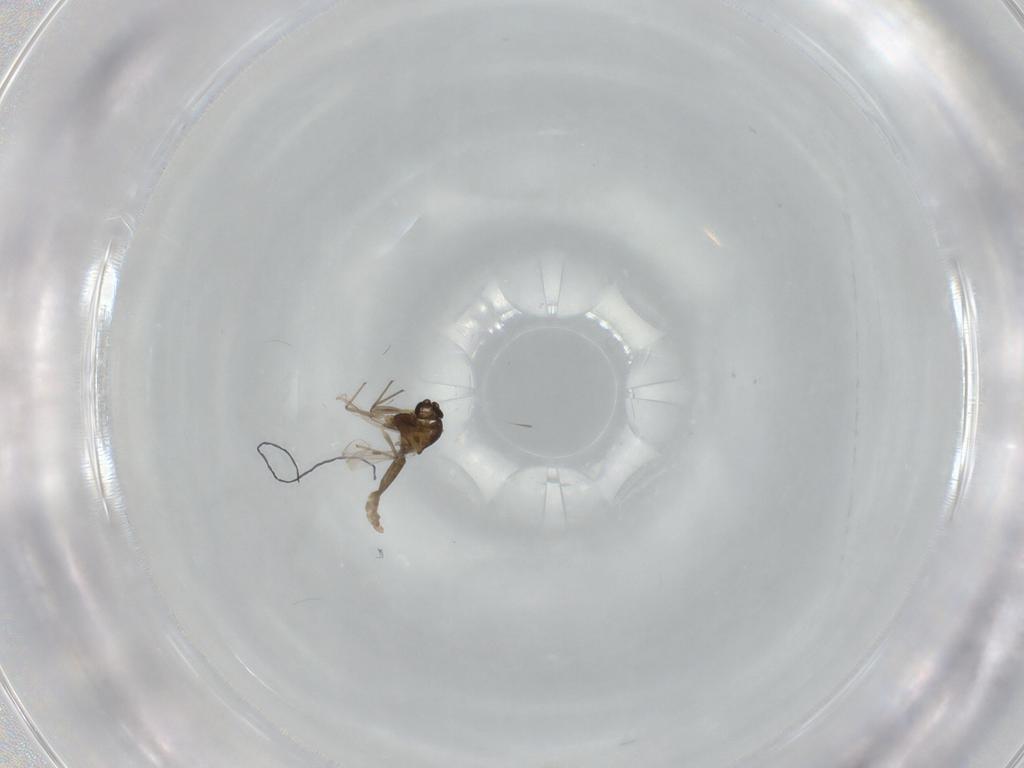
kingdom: Animalia
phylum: Arthropoda
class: Insecta
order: Diptera
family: Chironomidae
